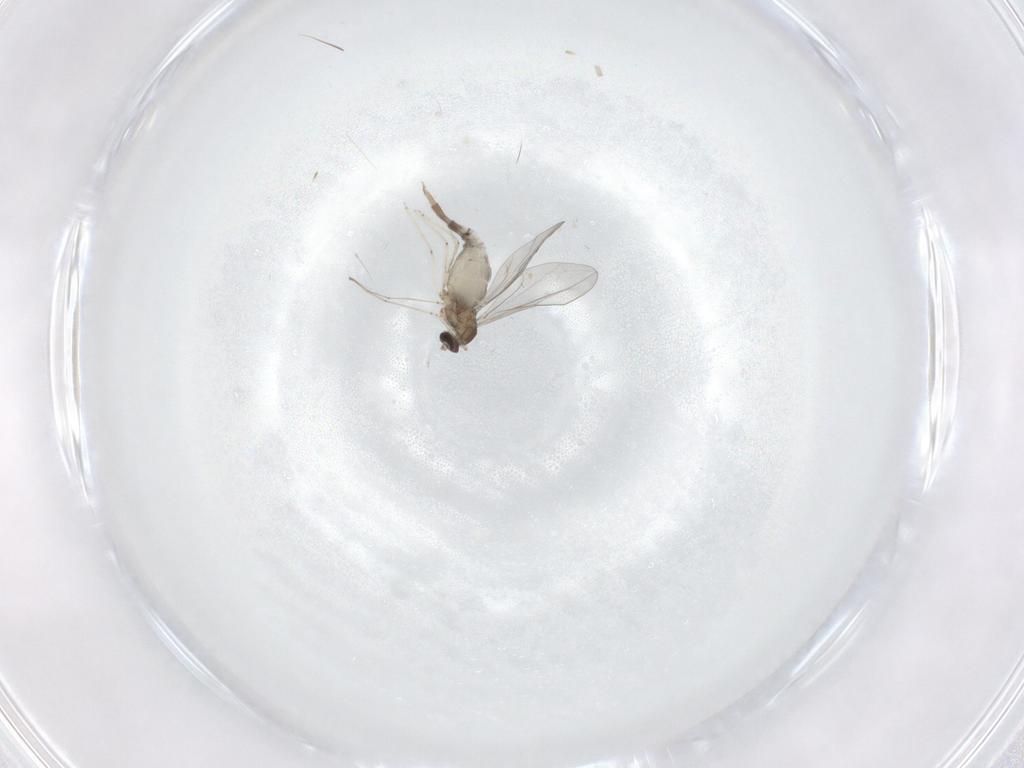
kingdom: Animalia
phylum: Arthropoda
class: Insecta
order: Diptera
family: Cecidomyiidae
